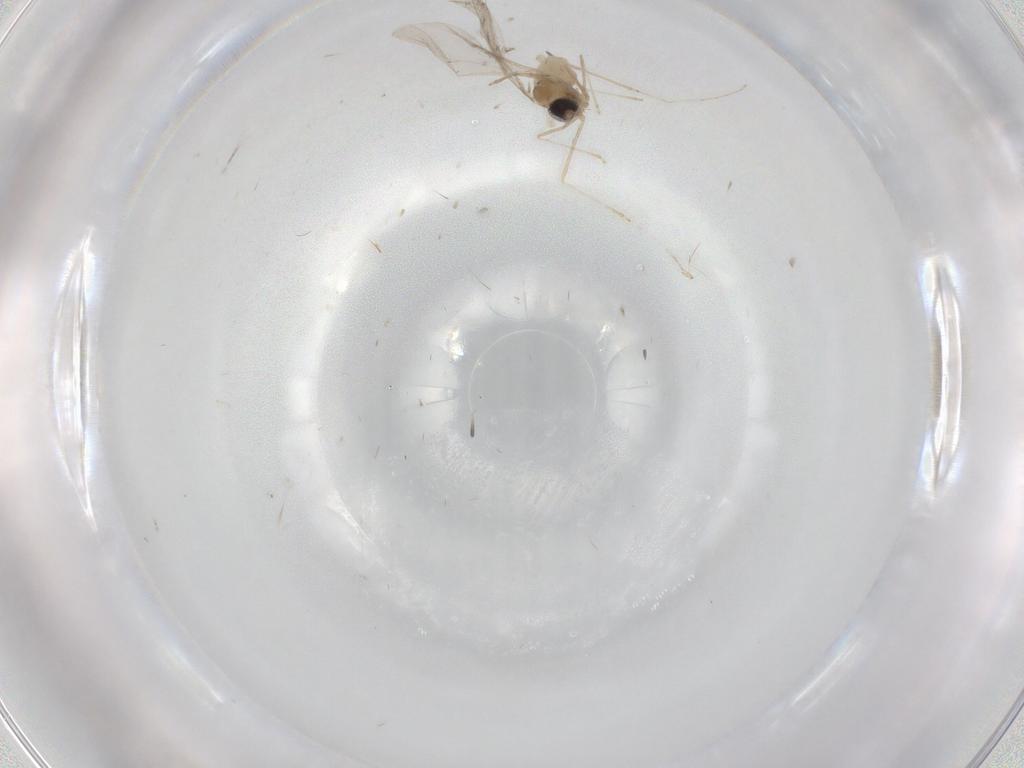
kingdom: Animalia
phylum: Arthropoda
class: Insecta
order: Diptera
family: Cecidomyiidae
